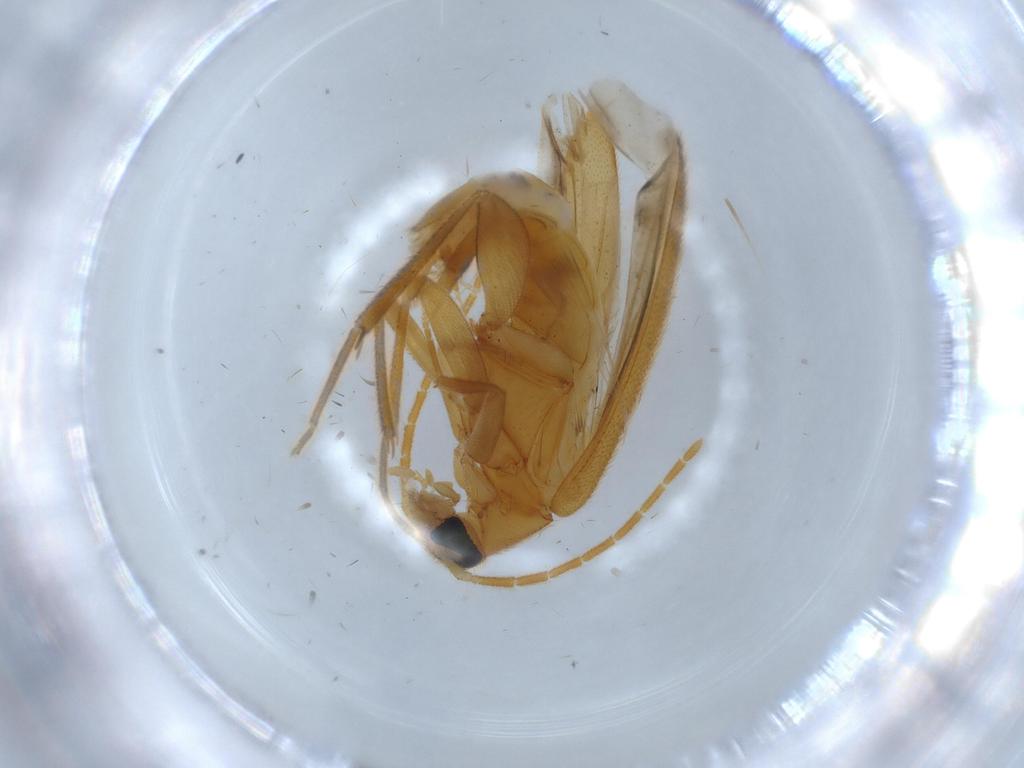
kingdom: Animalia
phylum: Arthropoda
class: Insecta
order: Coleoptera
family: Scraptiidae
